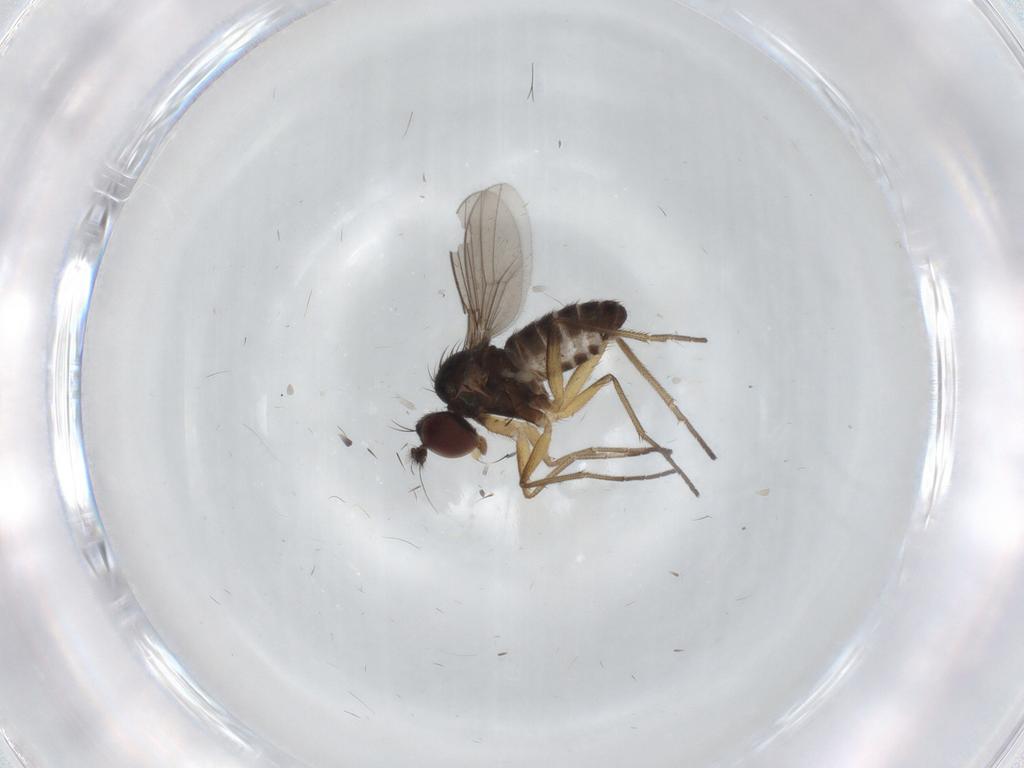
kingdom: Animalia
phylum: Arthropoda
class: Insecta
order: Diptera
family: Dolichopodidae
